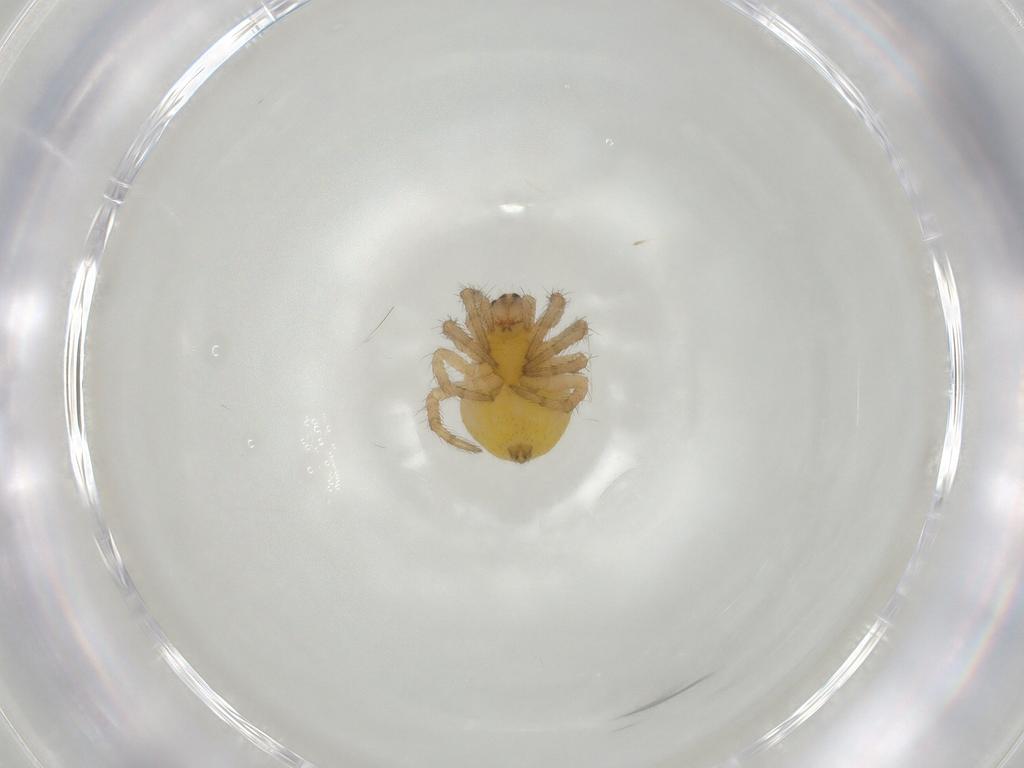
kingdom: Animalia
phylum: Arthropoda
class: Arachnida
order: Araneae
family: Araneidae
